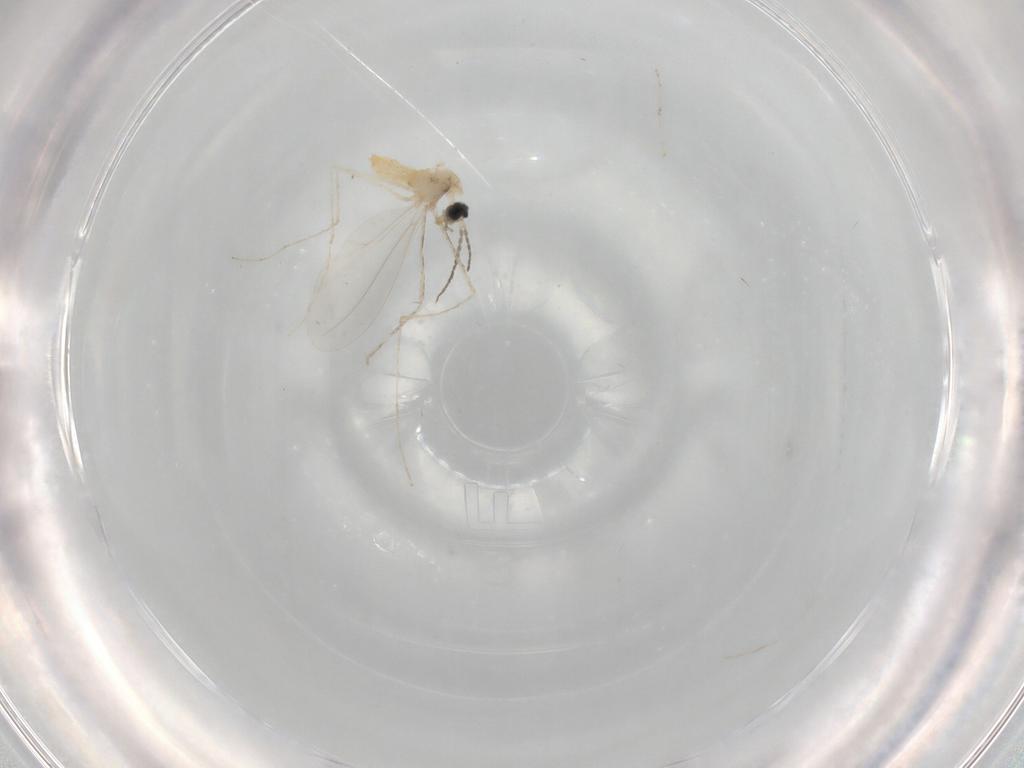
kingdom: Animalia
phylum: Arthropoda
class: Insecta
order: Diptera
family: Cecidomyiidae
